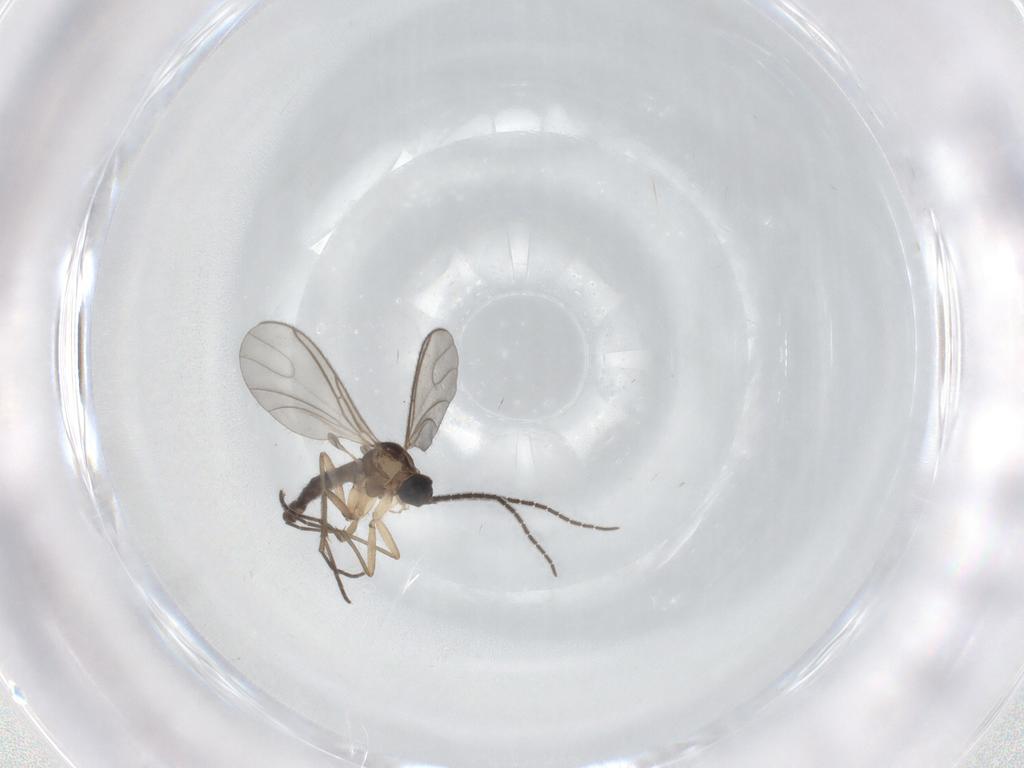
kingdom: Animalia
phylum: Arthropoda
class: Insecta
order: Diptera
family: Sciaridae
